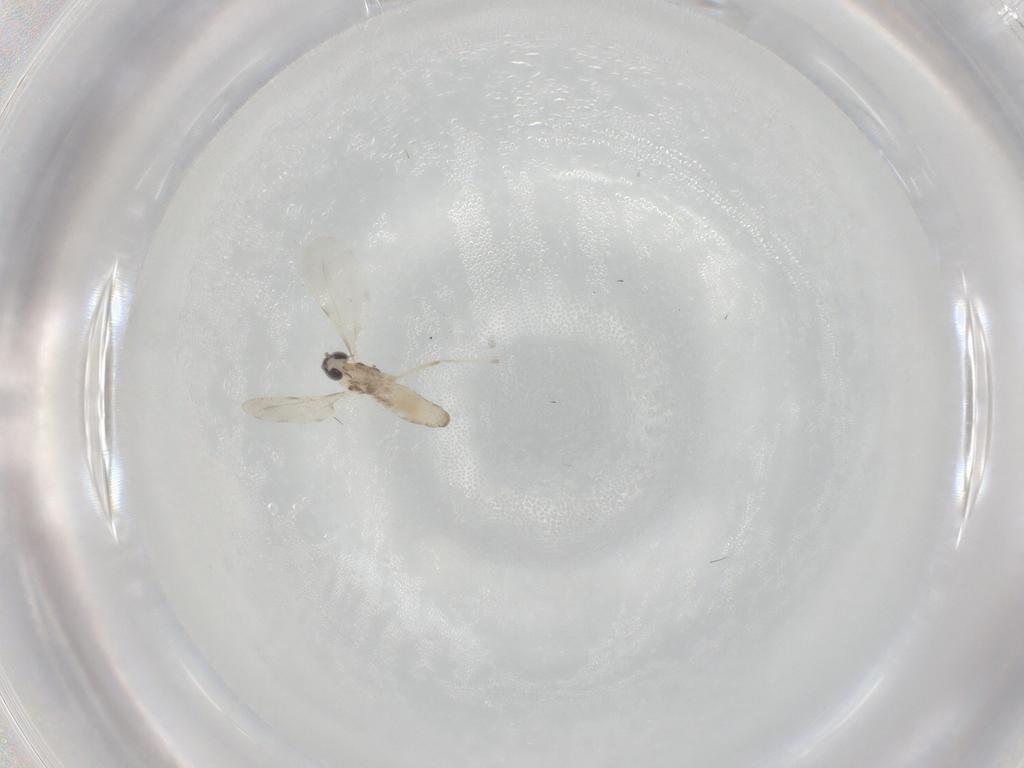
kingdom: Animalia
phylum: Arthropoda
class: Insecta
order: Diptera
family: Cecidomyiidae
